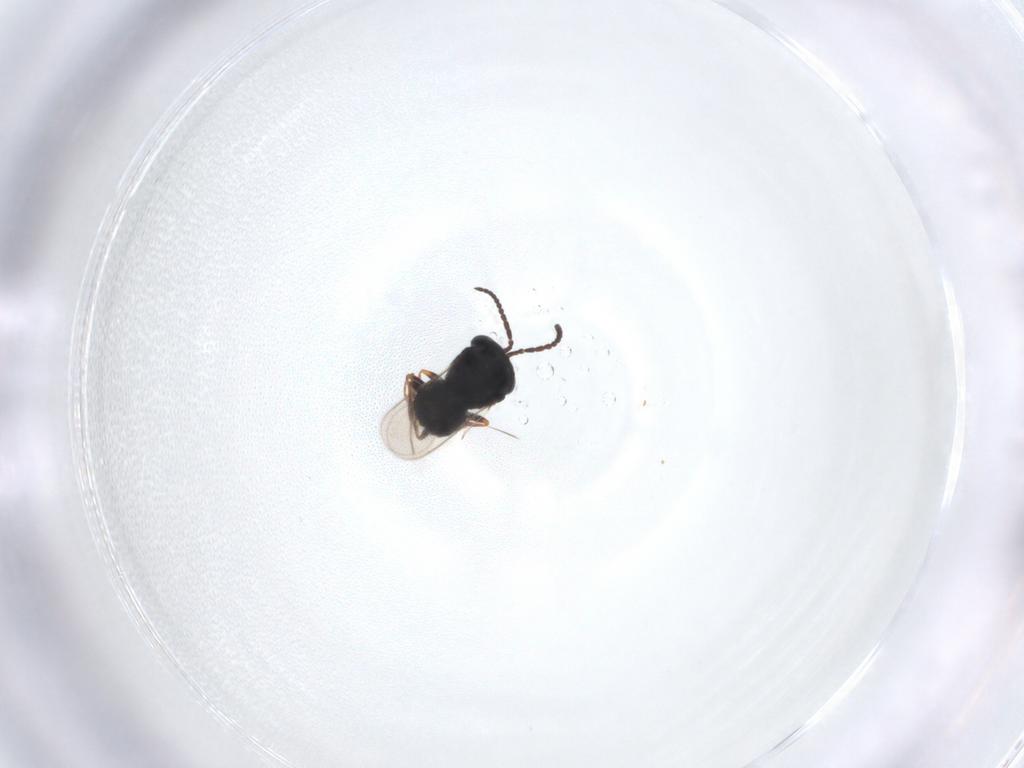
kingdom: Animalia
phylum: Arthropoda
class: Insecta
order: Hymenoptera
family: Scelionidae
